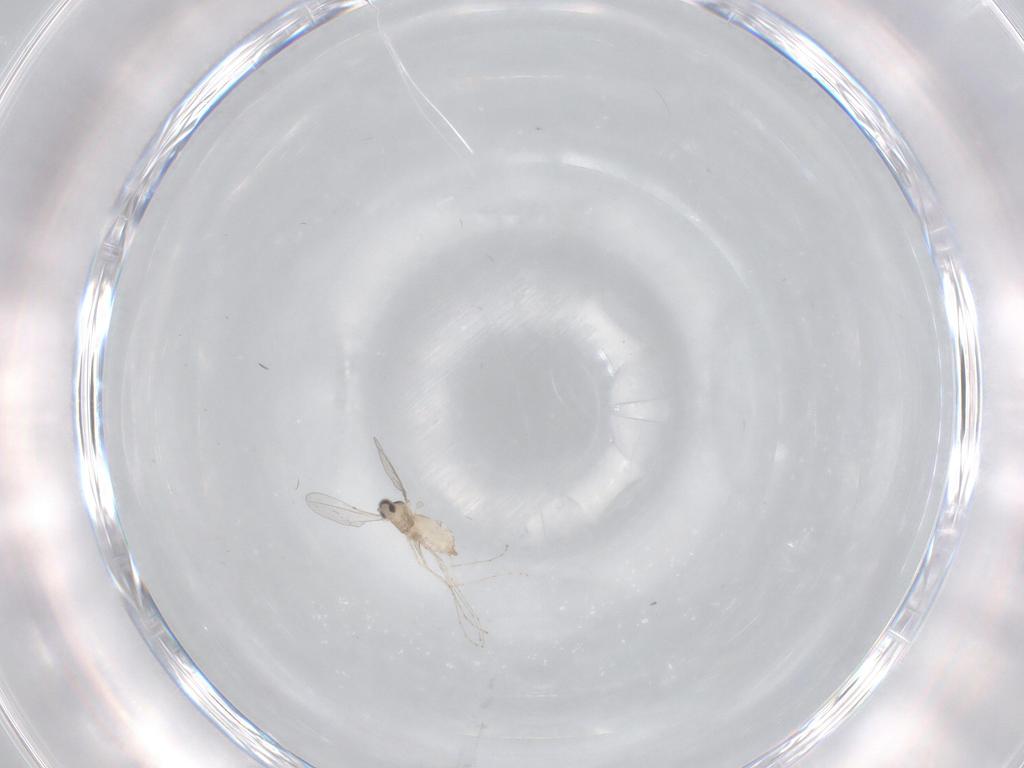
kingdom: Animalia
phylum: Arthropoda
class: Insecta
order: Diptera
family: Cecidomyiidae
